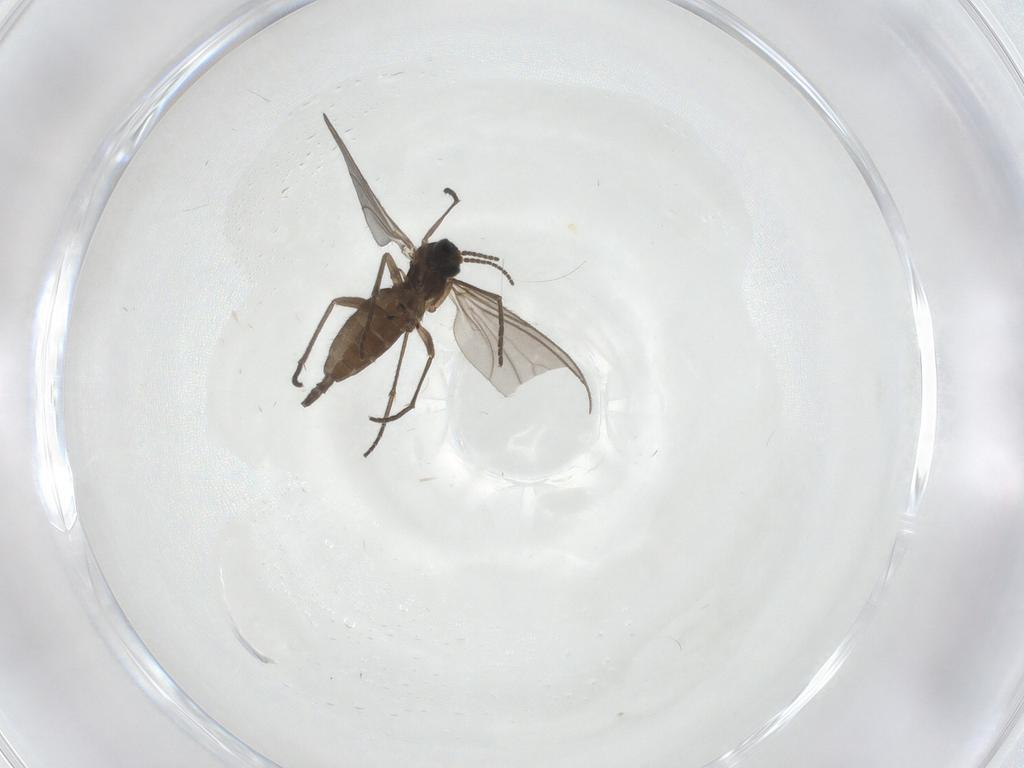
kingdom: Animalia
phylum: Arthropoda
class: Insecta
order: Diptera
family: Sciaridae
